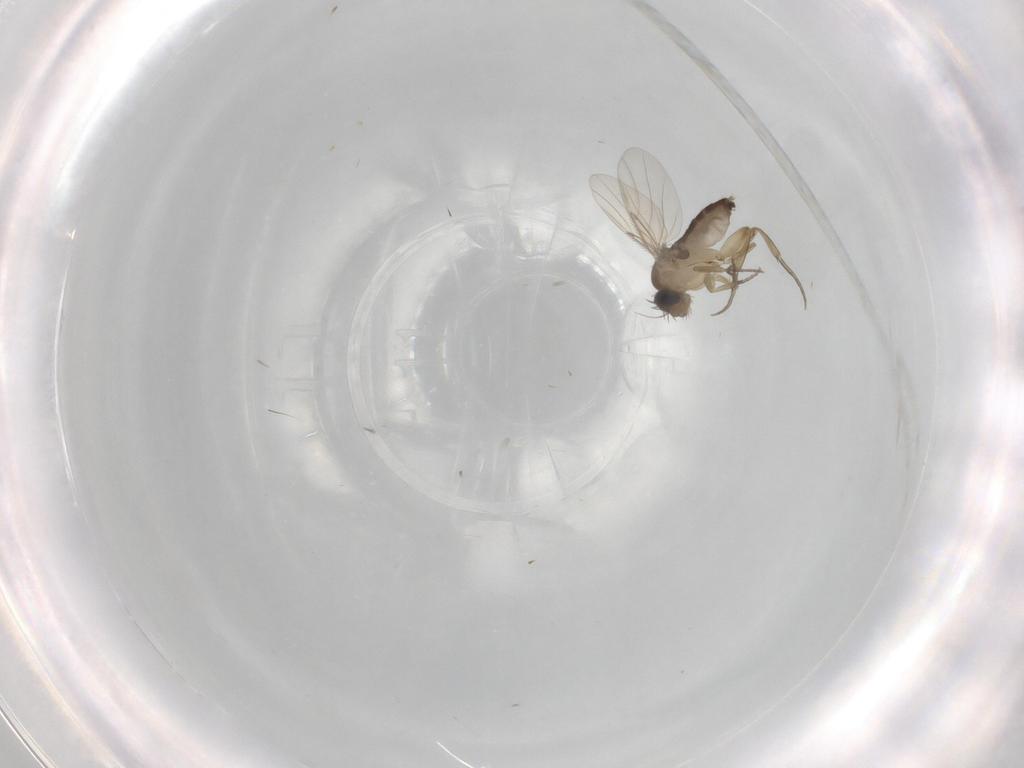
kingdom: Animalia
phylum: Arthropoda
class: Insecta
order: Diptera
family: Phoridae
